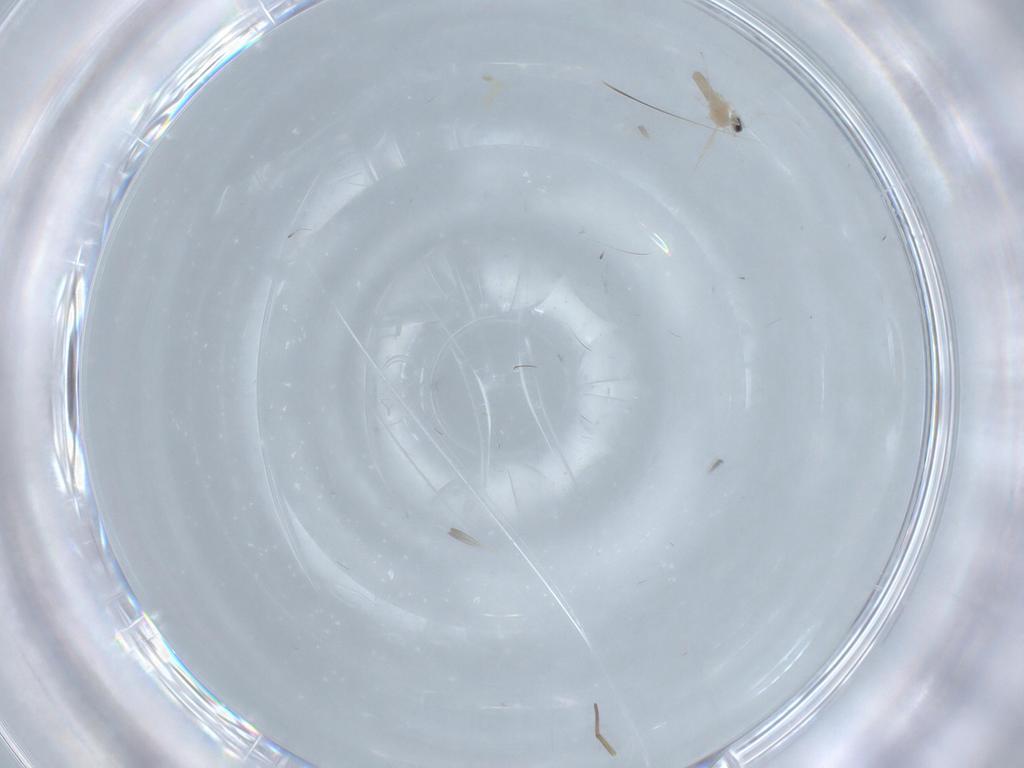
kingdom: Animalia
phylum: Arthropoda
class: Insecta
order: Diptera
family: Cecidomyiidae
